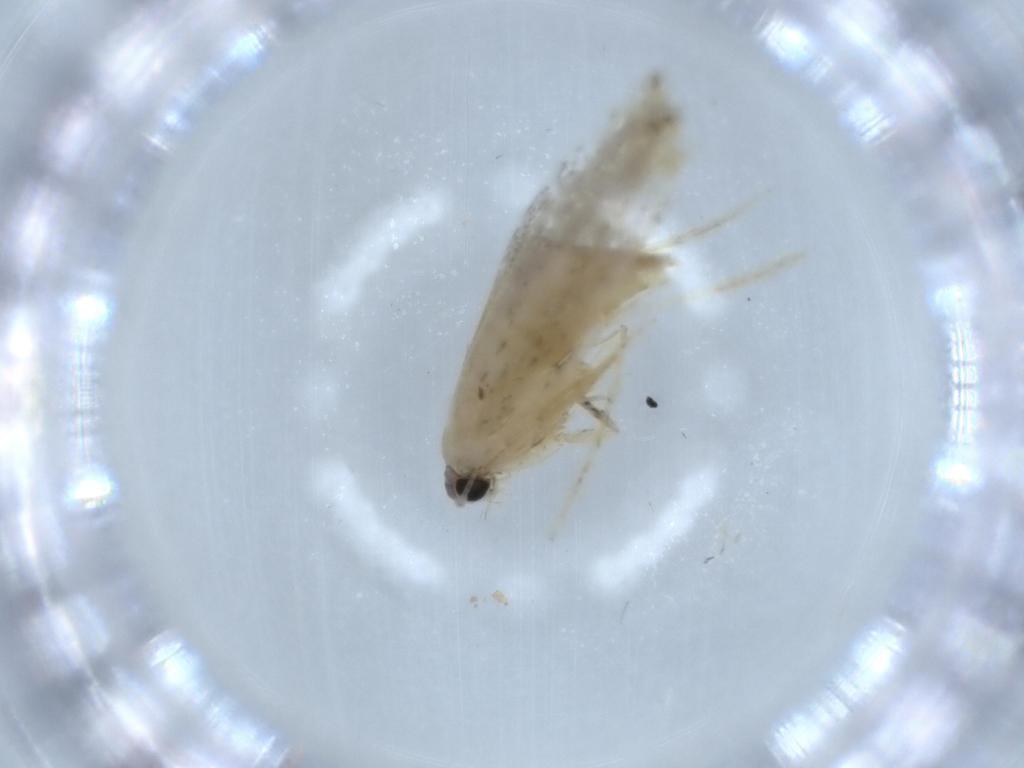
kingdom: Animalia
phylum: Arthropoda
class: Insecta
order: Lepidoptera
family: Tineidae
